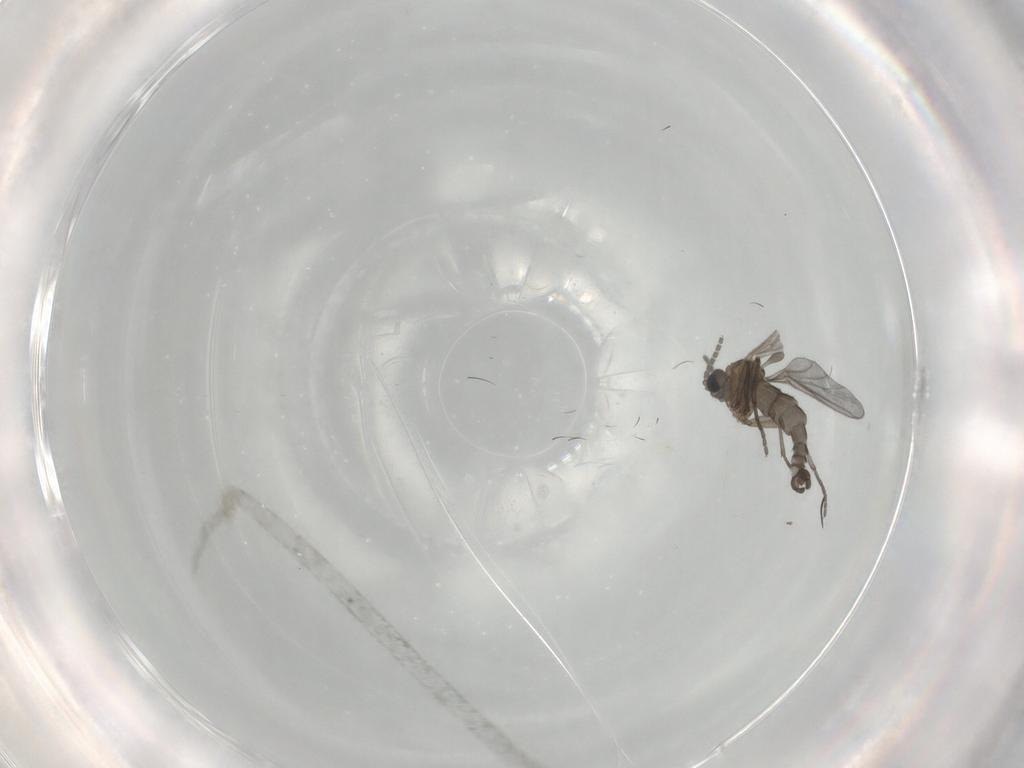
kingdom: Animalia
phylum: Arthropoda
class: Insecta
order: Diptera
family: Sciaridae
